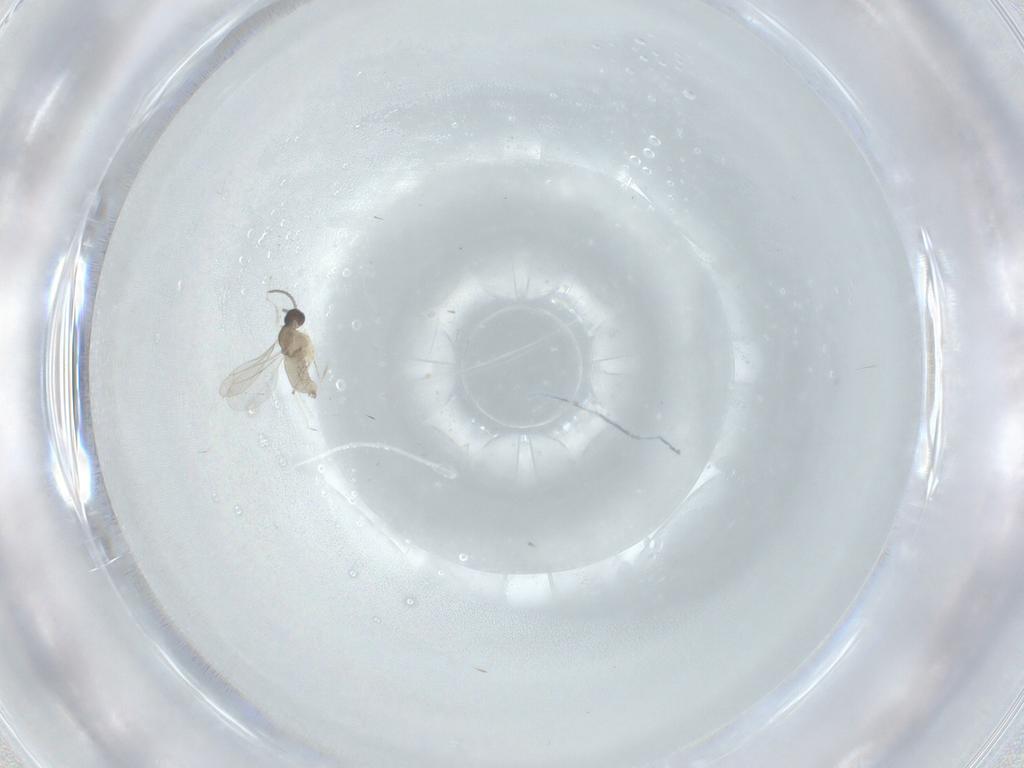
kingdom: Animalia
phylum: Arthropoda
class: Insecta
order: Diptera
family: Cecidomyiidae
